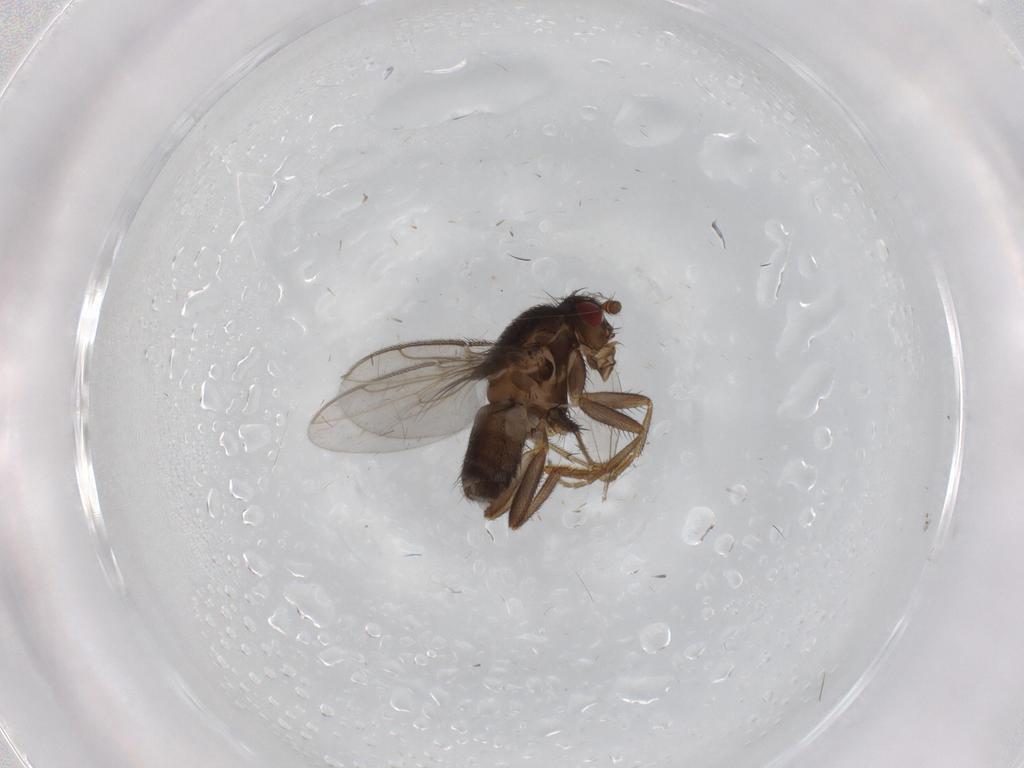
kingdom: Animalia
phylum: Arthropoda
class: Insecta
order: Diptera
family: Sphaeroceridae
